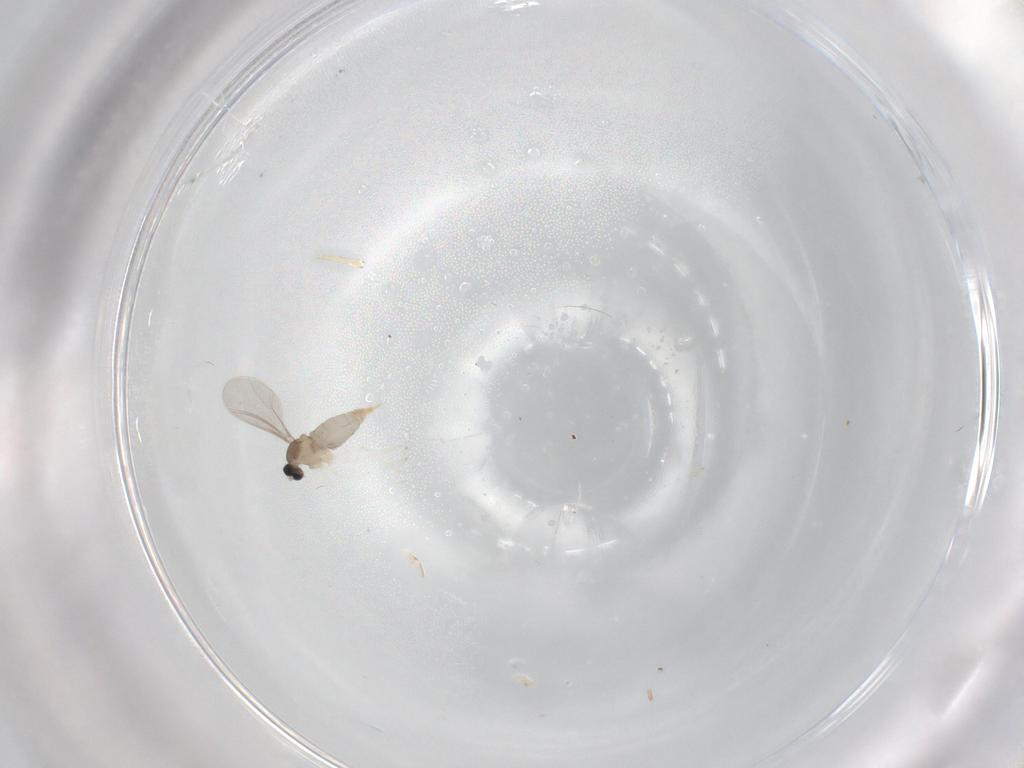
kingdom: Animalia
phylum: Arthropoda
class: Insecta
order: Diptera
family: Cecidomyiidae
